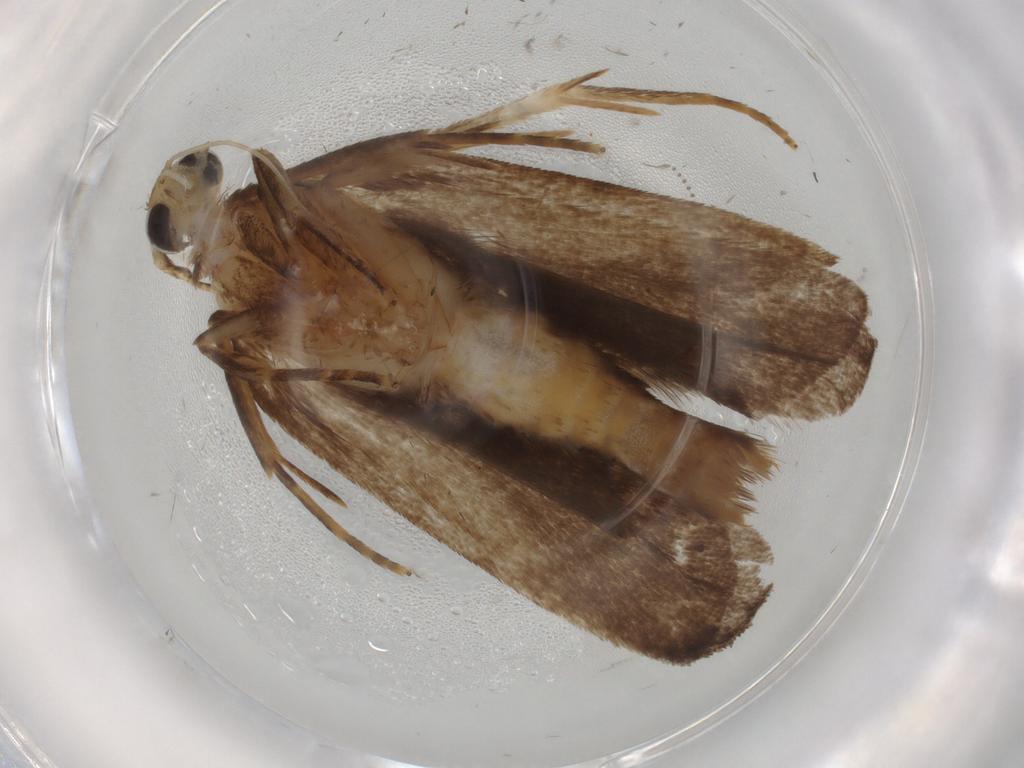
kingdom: Animalia
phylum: Arthropoda
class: Insecta
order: Lepidoptera
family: Autostichidae
